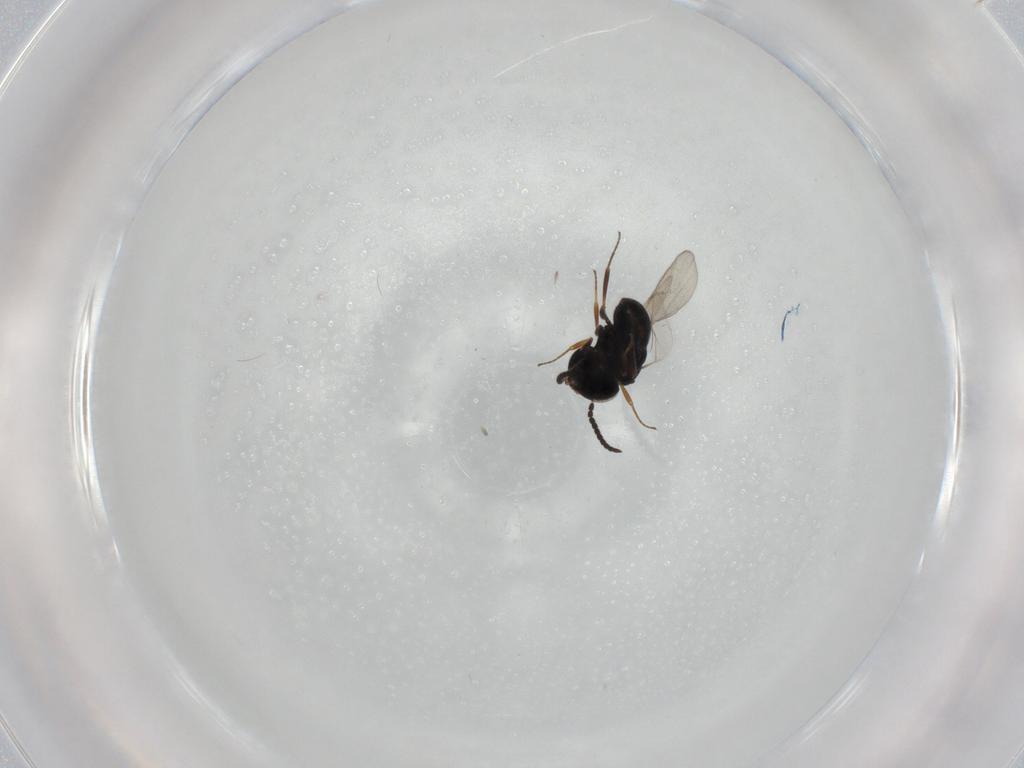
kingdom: Animalia
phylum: Arthropoda
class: Insecta
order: Hymenoptera
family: Scelionidae
